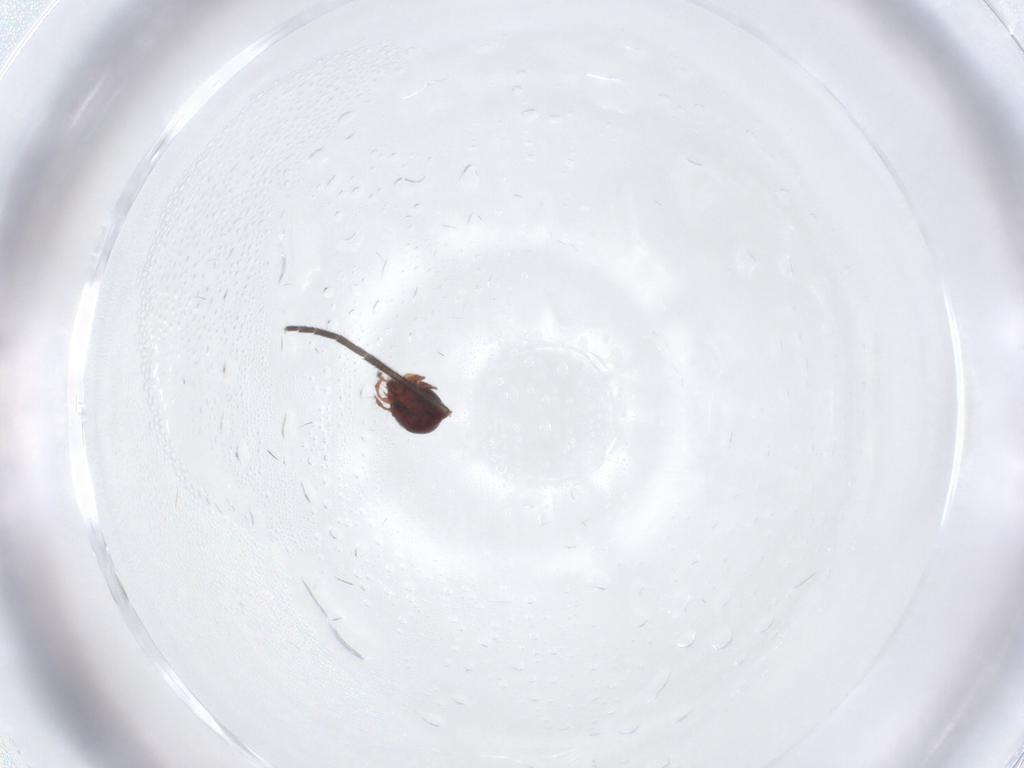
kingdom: Animalia
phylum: Arthropoda
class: Arachnida
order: Sarcoptiformes
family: Ceratozetidae
